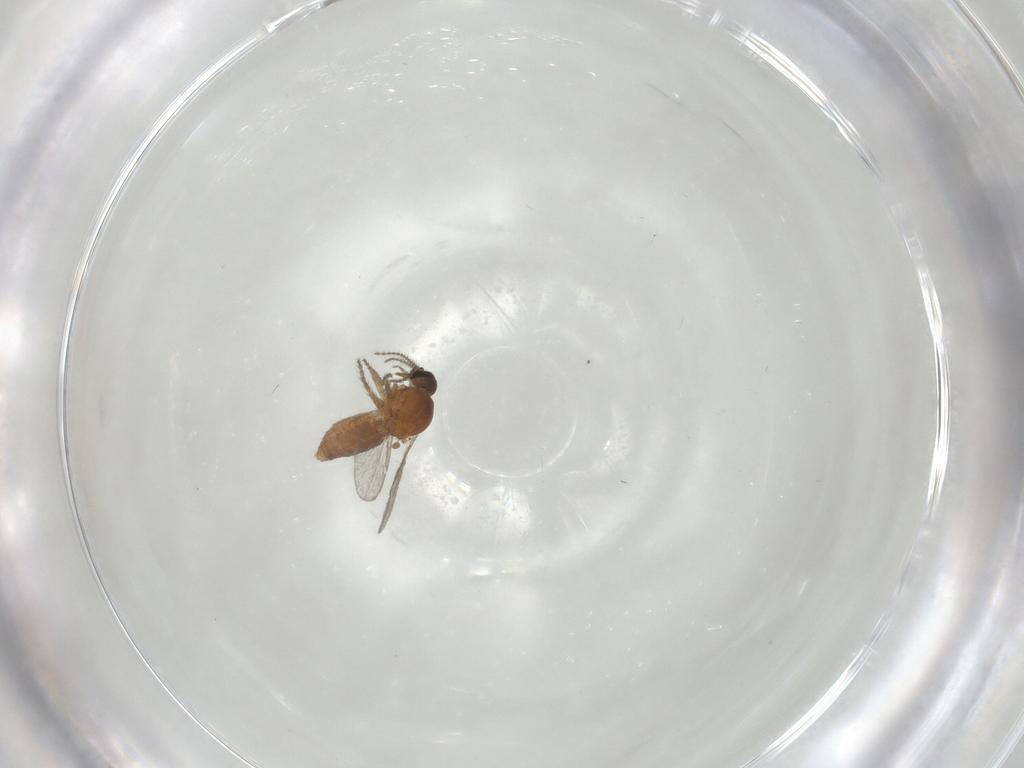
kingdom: Animalia
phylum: Arthropoda
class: Insecta
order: Diptera
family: Ceratopogonidae
